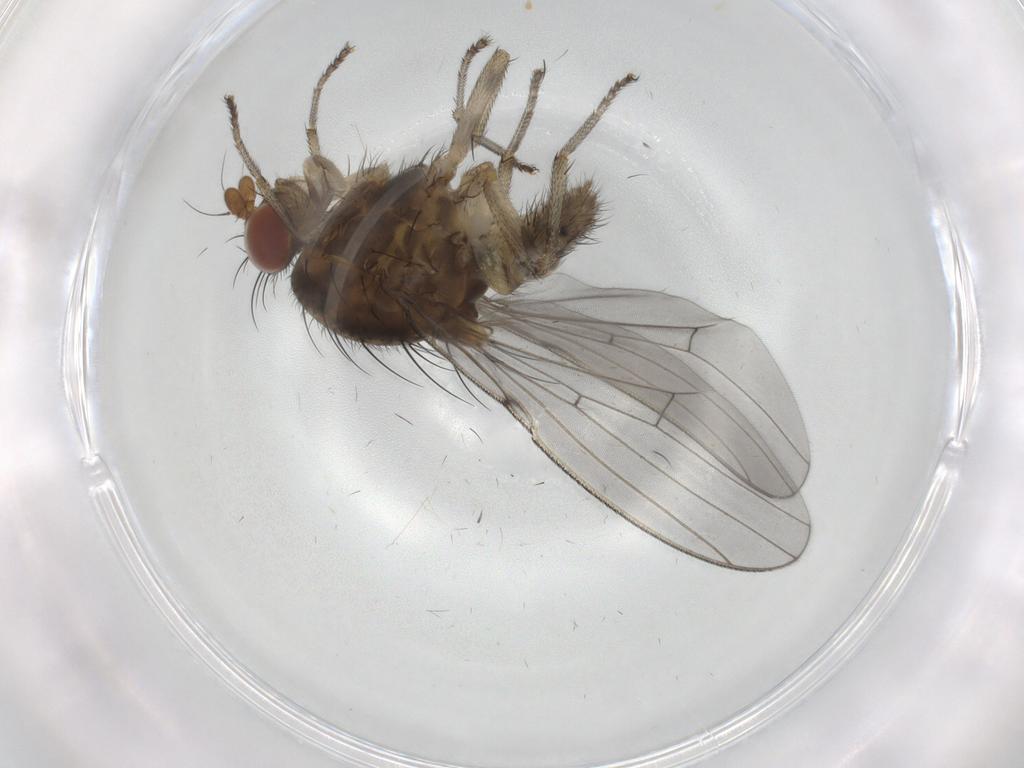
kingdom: Animalia
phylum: Arthropoda
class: Insecta
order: Diptera
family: Lauxaniidae
